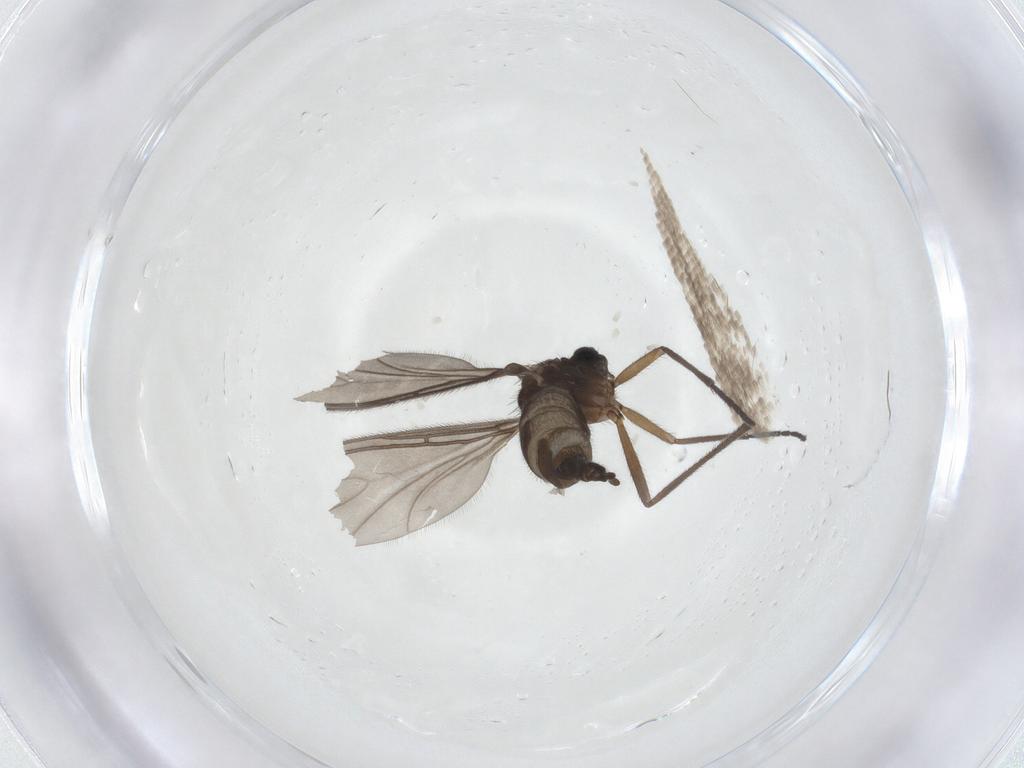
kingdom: Animalia
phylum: Arthropoda
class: Insecta
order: Diptera
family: Sciaridae
